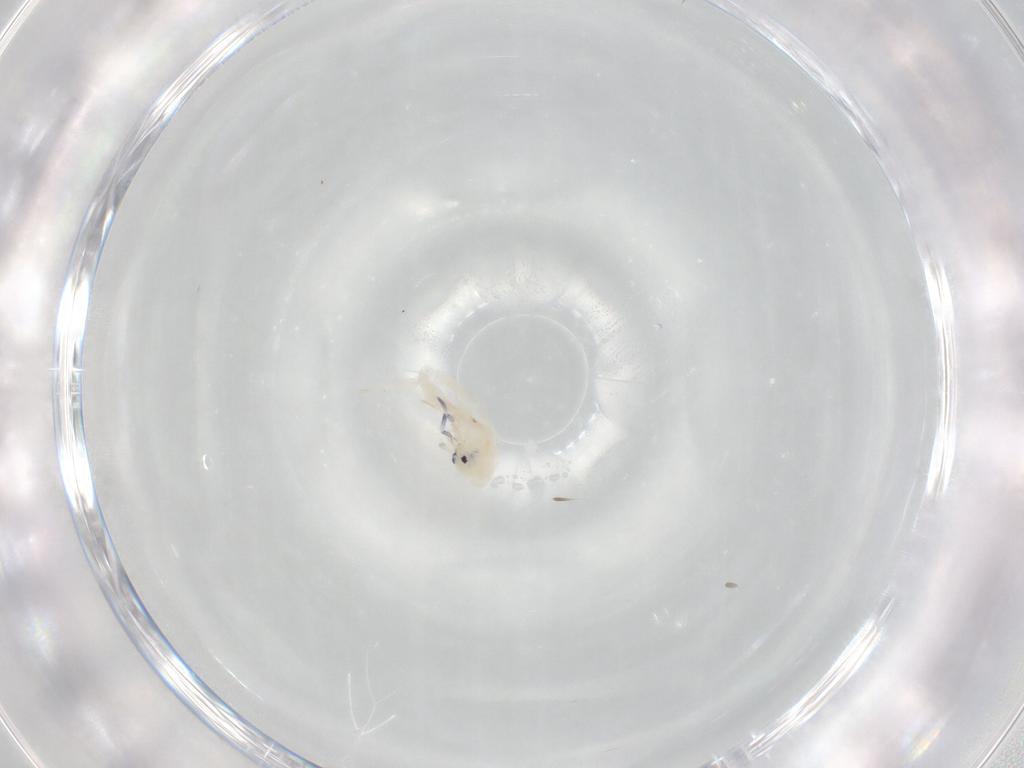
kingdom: Animalia
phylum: Arthropoda
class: Collembola
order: Entomobryomorpha
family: Entomobryidae
